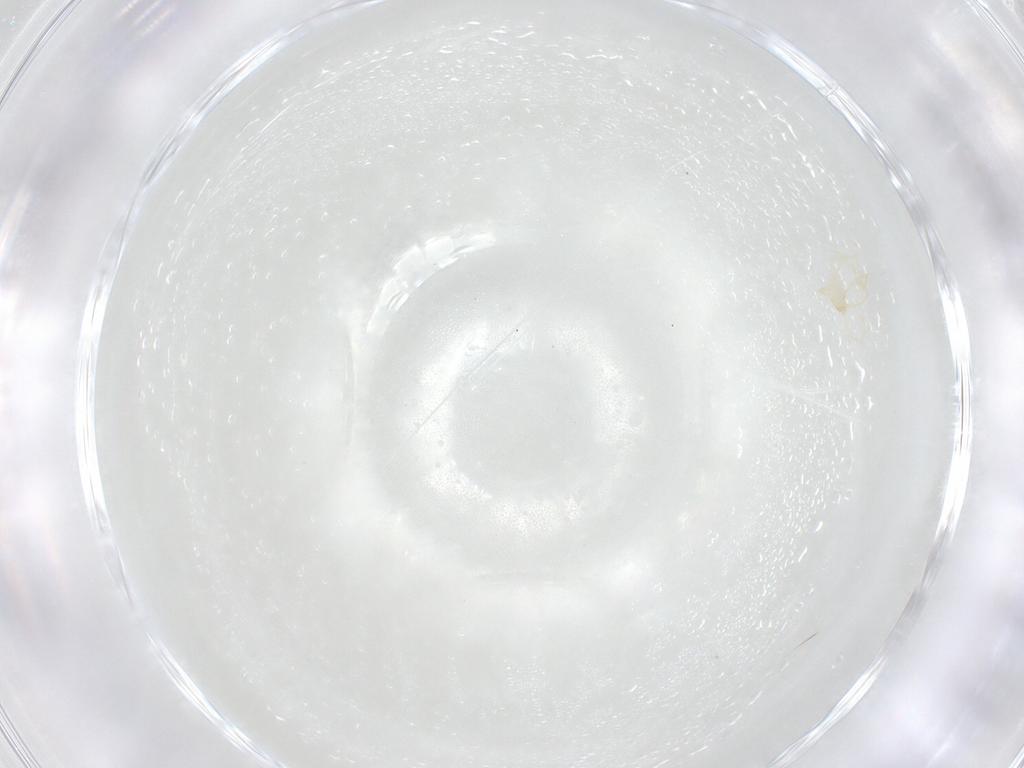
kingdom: Animalia
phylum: Arthropoda
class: Arachnida
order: Trombidiformes
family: Erythraeidae
